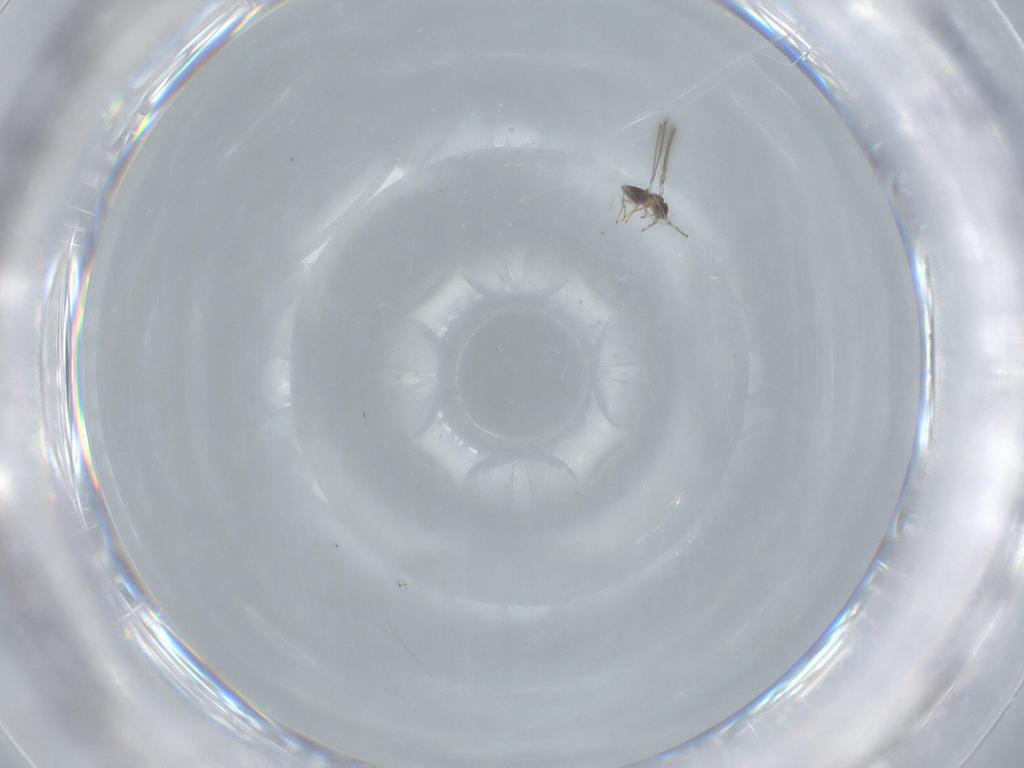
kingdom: Animalia
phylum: Arthropoda
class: Insecta
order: Hymenoptera
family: Mymaridae
